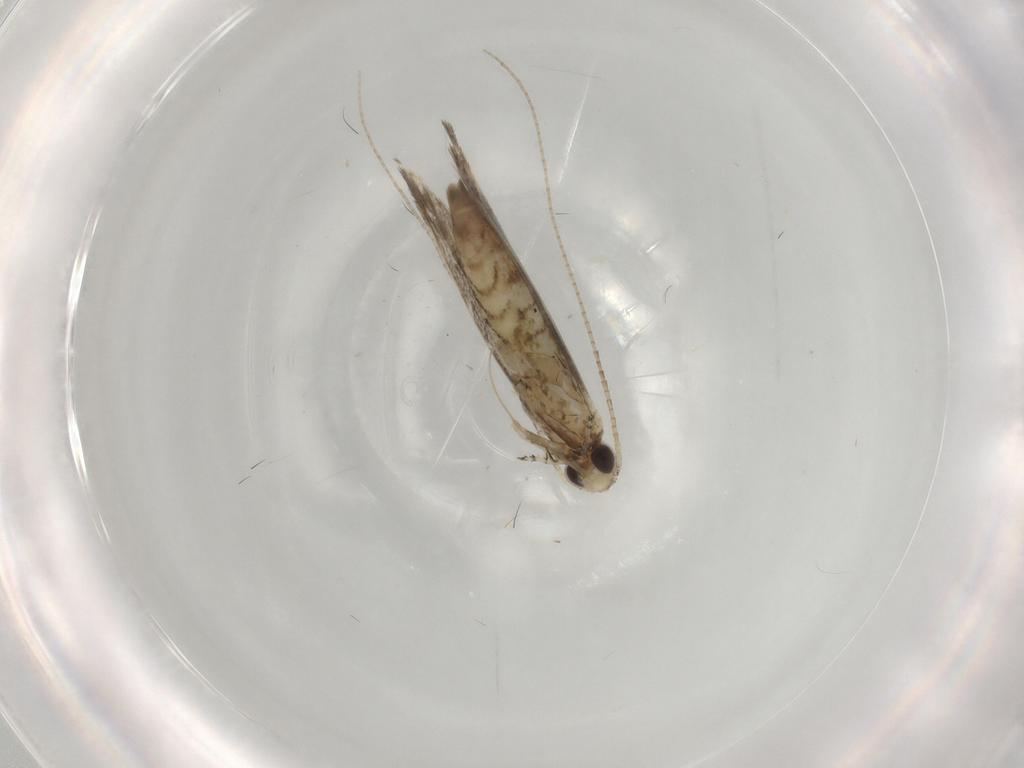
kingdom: Animalia
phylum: Arthropoda
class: Insecta
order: Lepidoptera
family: Gracillariidae
